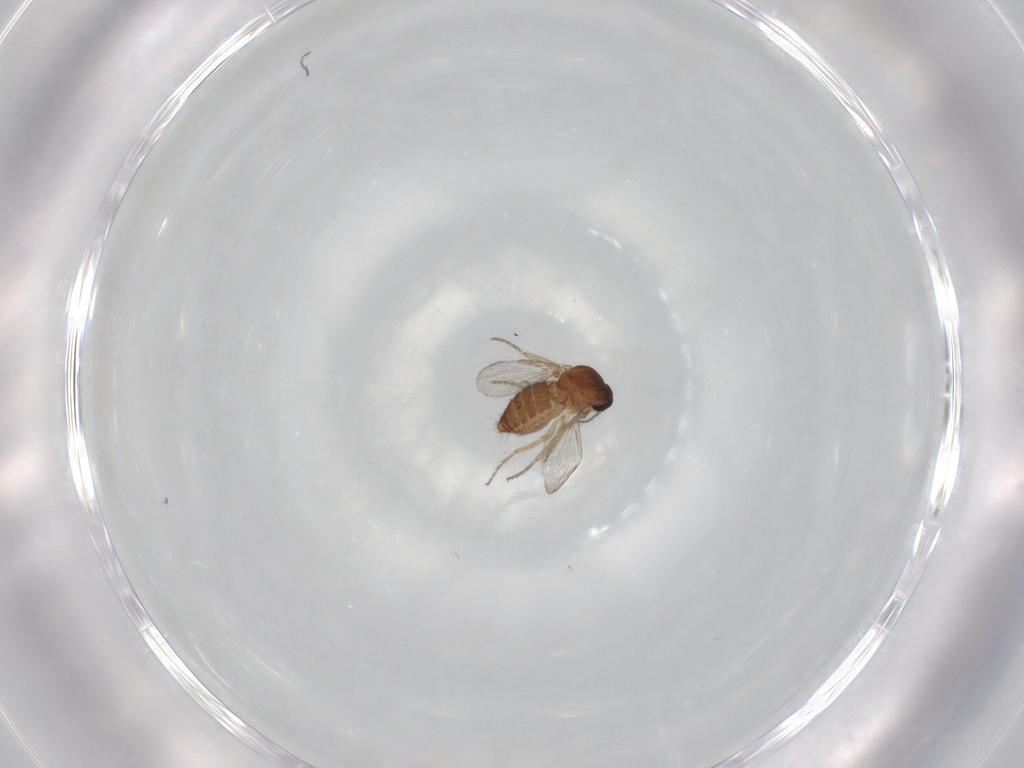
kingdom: Animalia
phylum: Arthropoda
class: Insecta
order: Diptera
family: Ceratopogonidae
